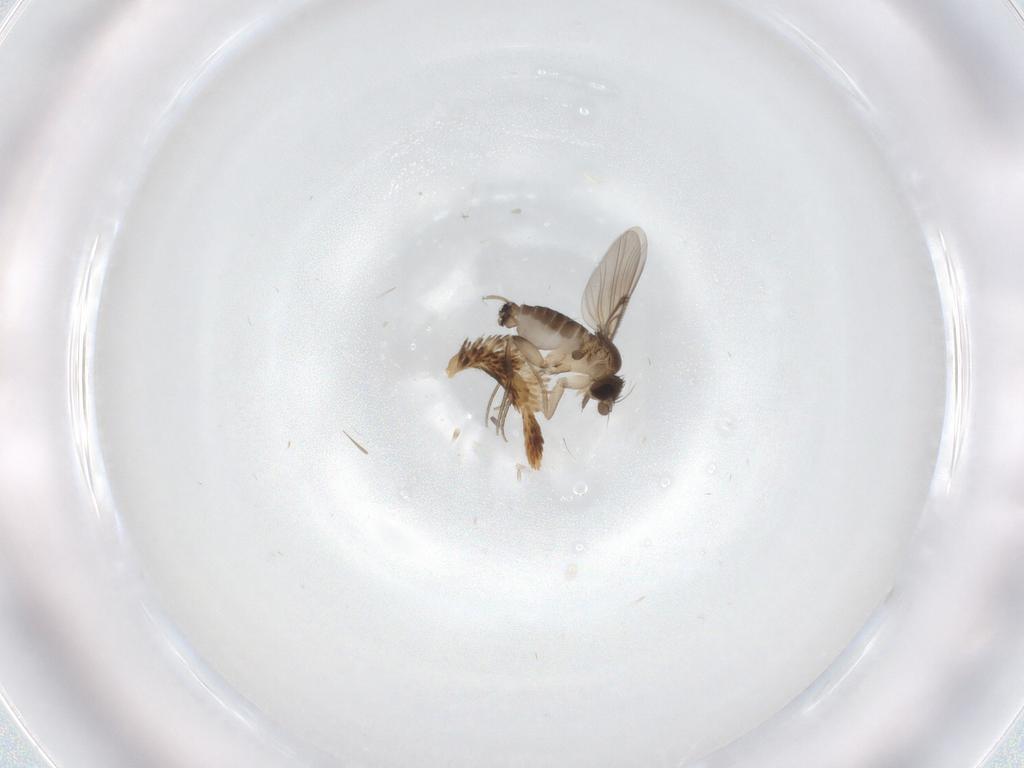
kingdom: Animalia
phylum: Arthropoda
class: Insecta
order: Diptera
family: Phoridae
